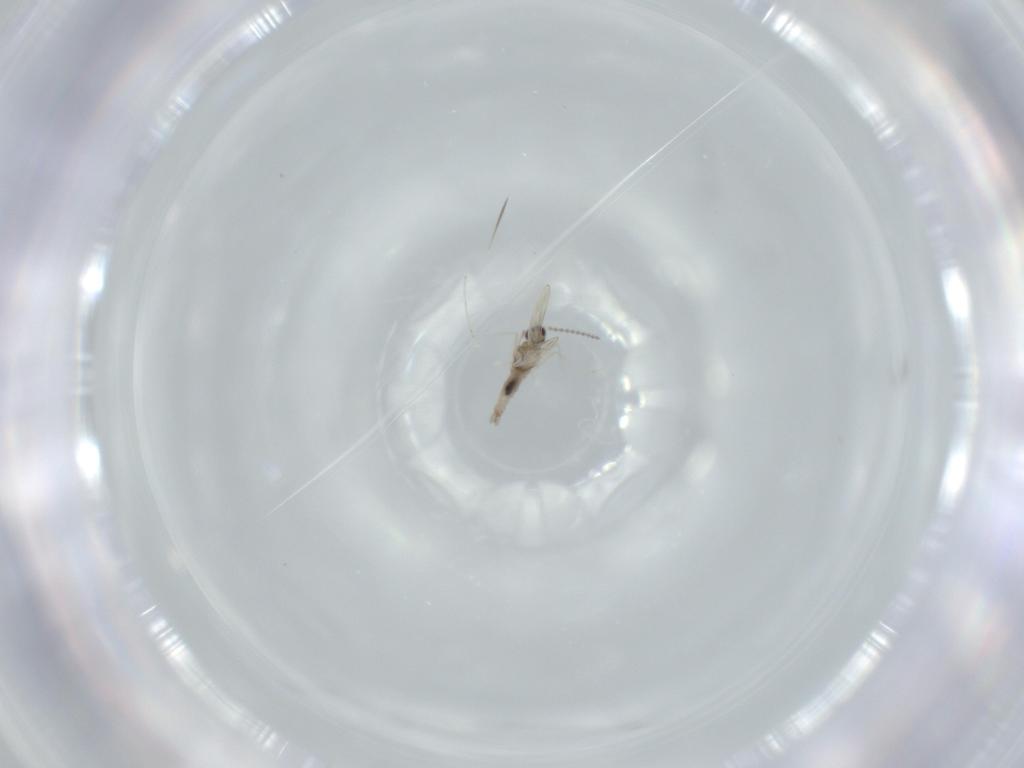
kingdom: Animalia
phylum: Arthropoda
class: Insecta
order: Diptera
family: Cecidomyiidae
